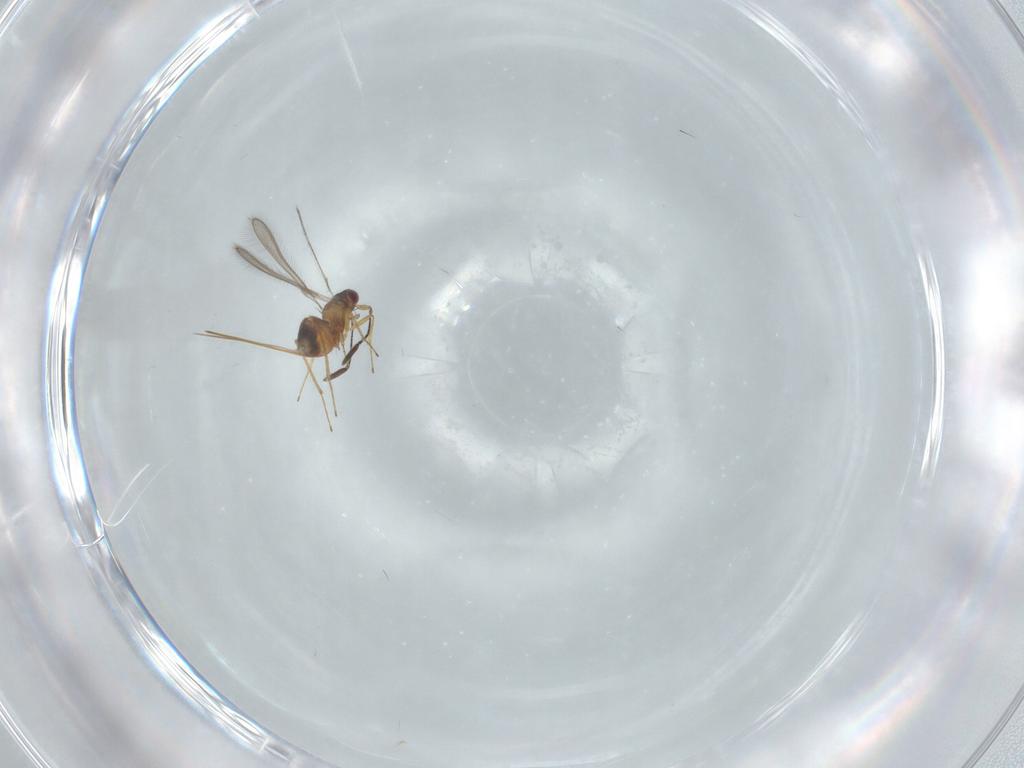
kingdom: Animalia
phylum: Arthropoda
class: Insecta
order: Hymenoptera
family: Mymaridae
